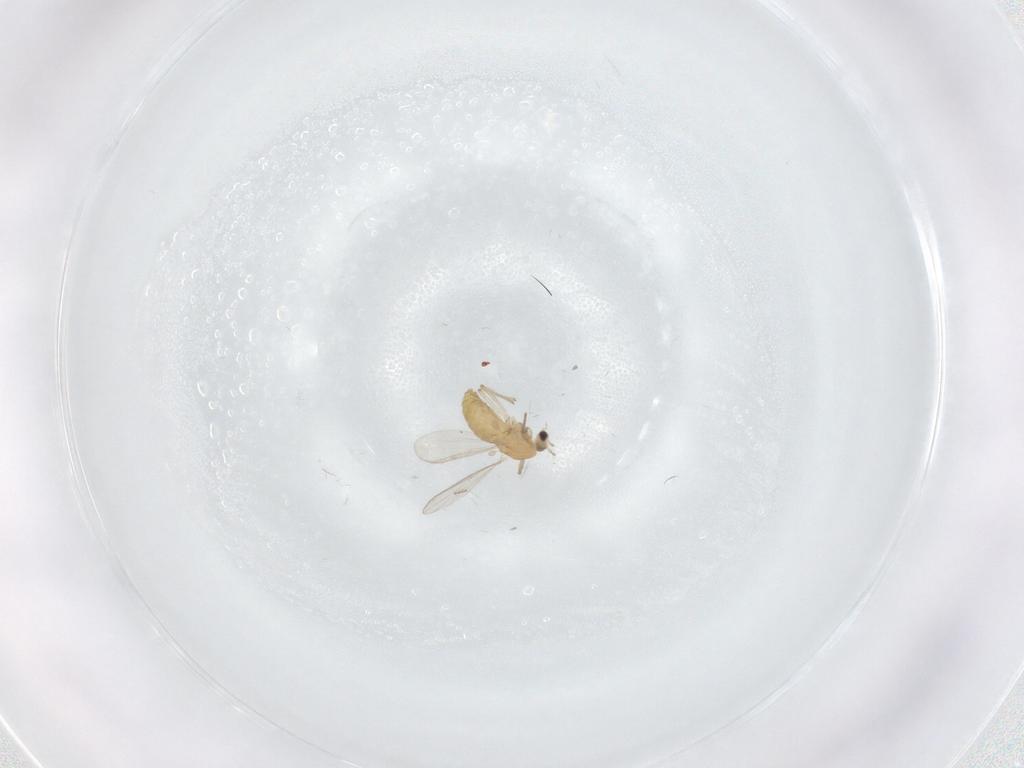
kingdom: Animalia
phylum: Arthropoda
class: Insecta
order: Diptera
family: Chironomidae
